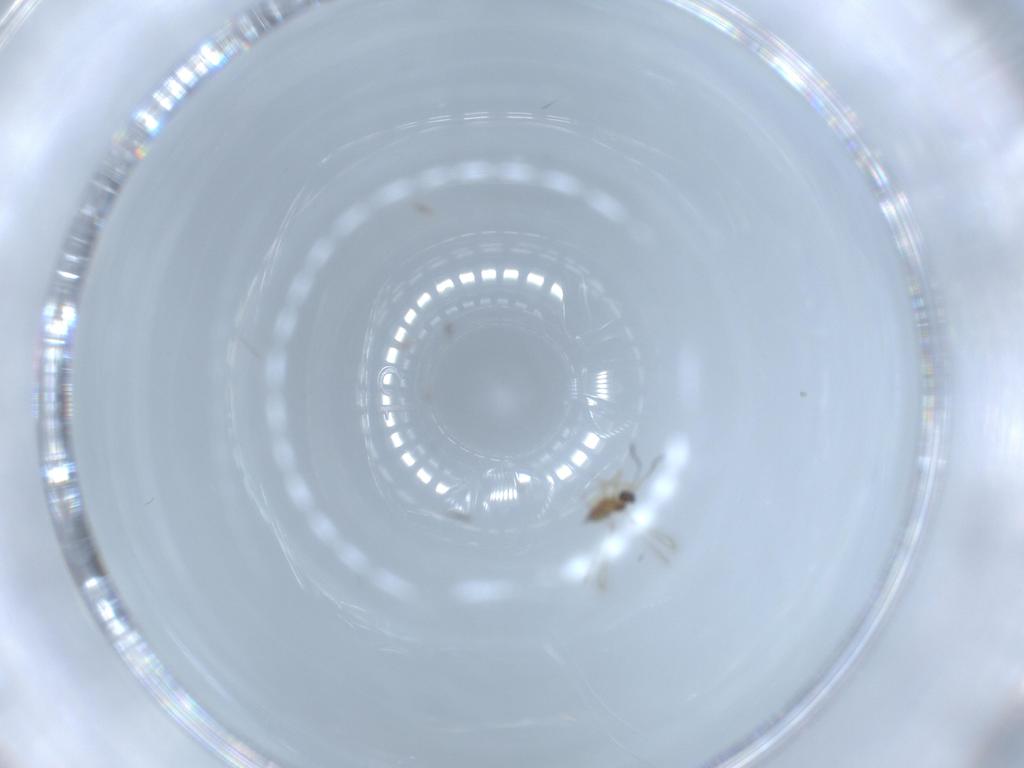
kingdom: Animalia
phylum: Arthropoda
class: Insecta
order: Hymenoptera
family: Mymaridae
